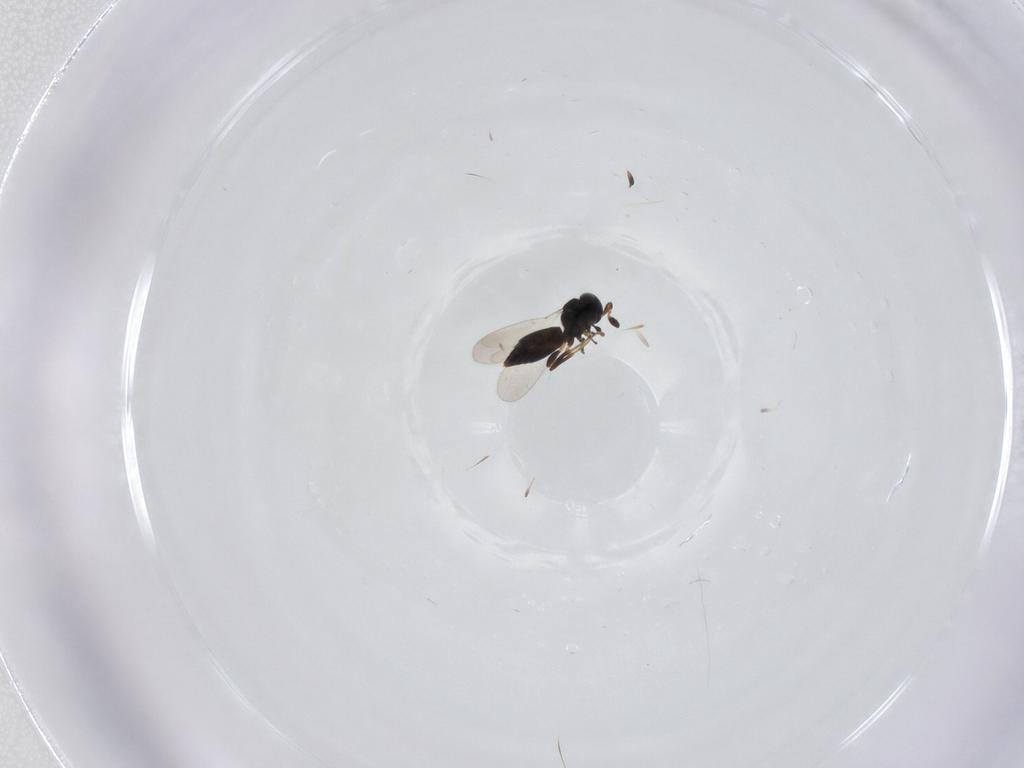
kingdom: Animalia
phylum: Arthropoda
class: Insecta
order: Hymenoptera
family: Platygastridae
